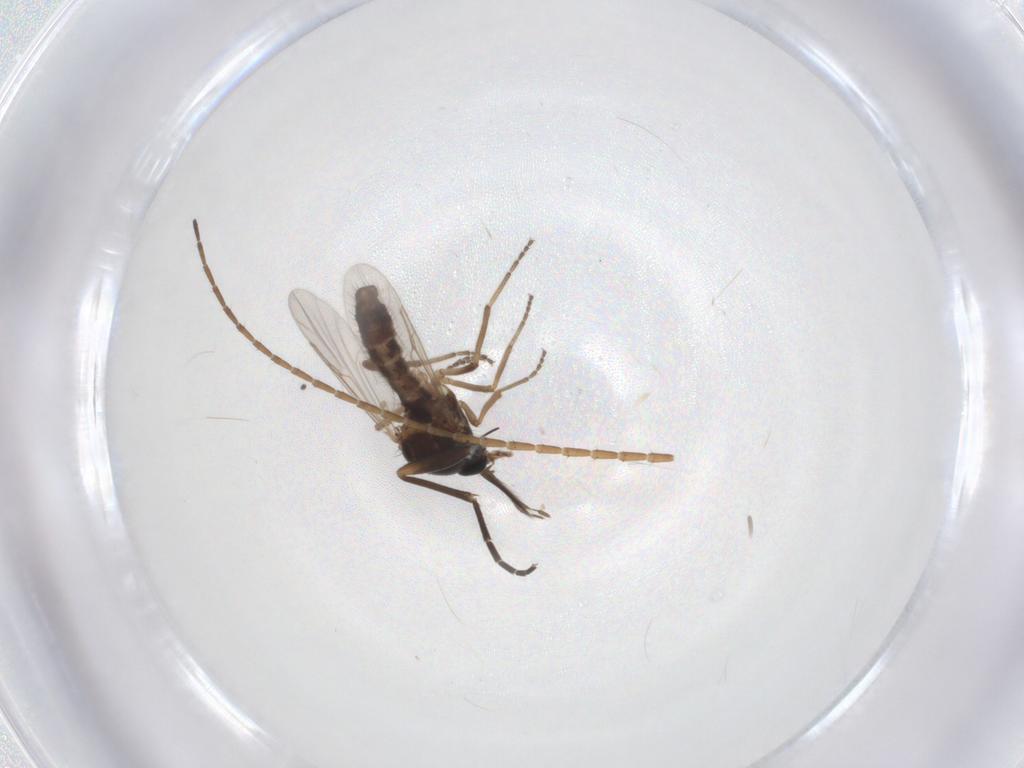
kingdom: Animalia
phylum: Arthropoda
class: Insecta
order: Diptera
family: Ceratopogonidae
